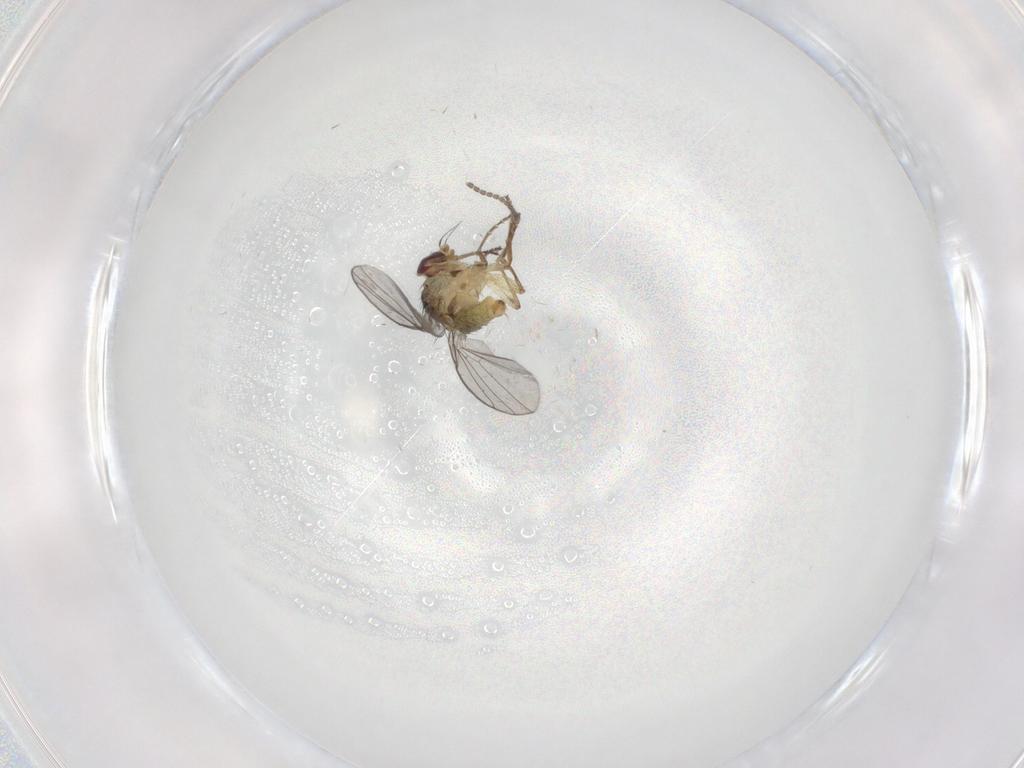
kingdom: Animalia
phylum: Arthropoda
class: Insecta
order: Diptera
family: Agromyzidae
